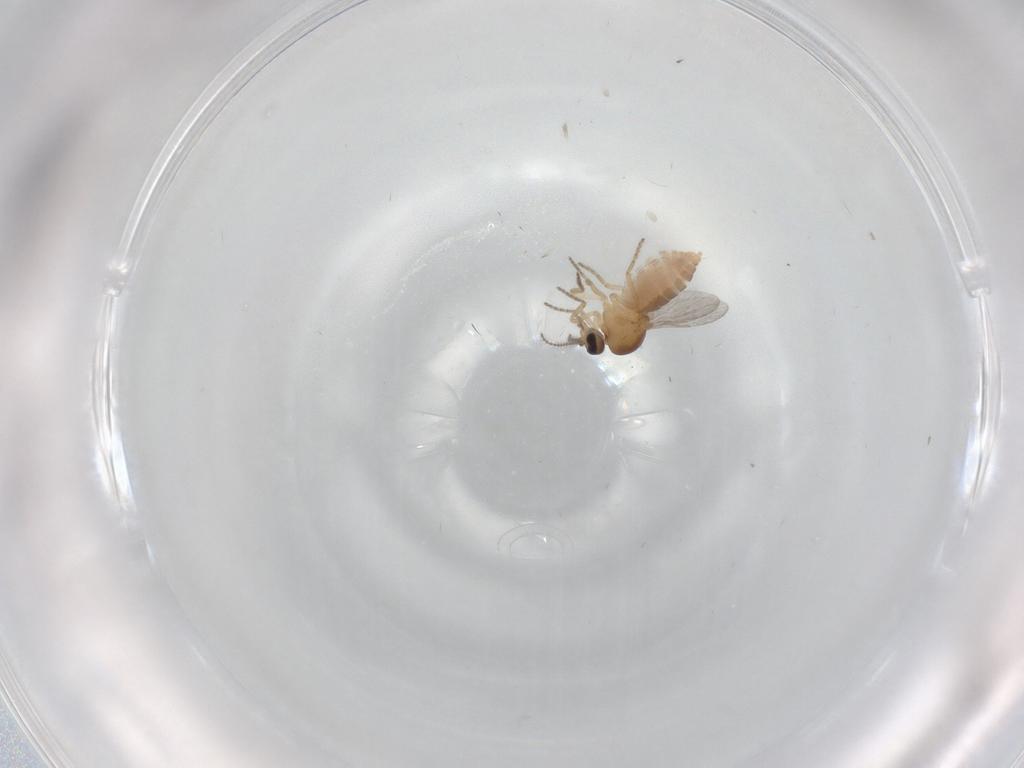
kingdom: Animalia
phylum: Arthropoda
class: Insecta
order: Diptera
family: Ceratopogonidae
